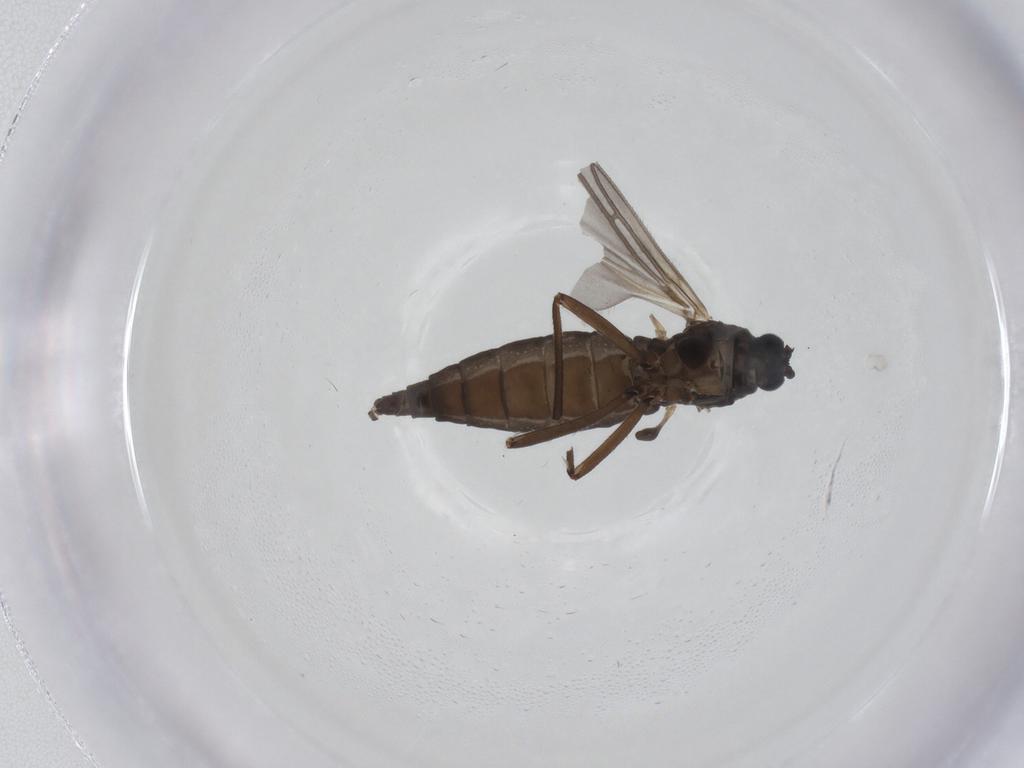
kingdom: Animalia
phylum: Arthropoda
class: Insecta
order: Diptera
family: Sciaridae
